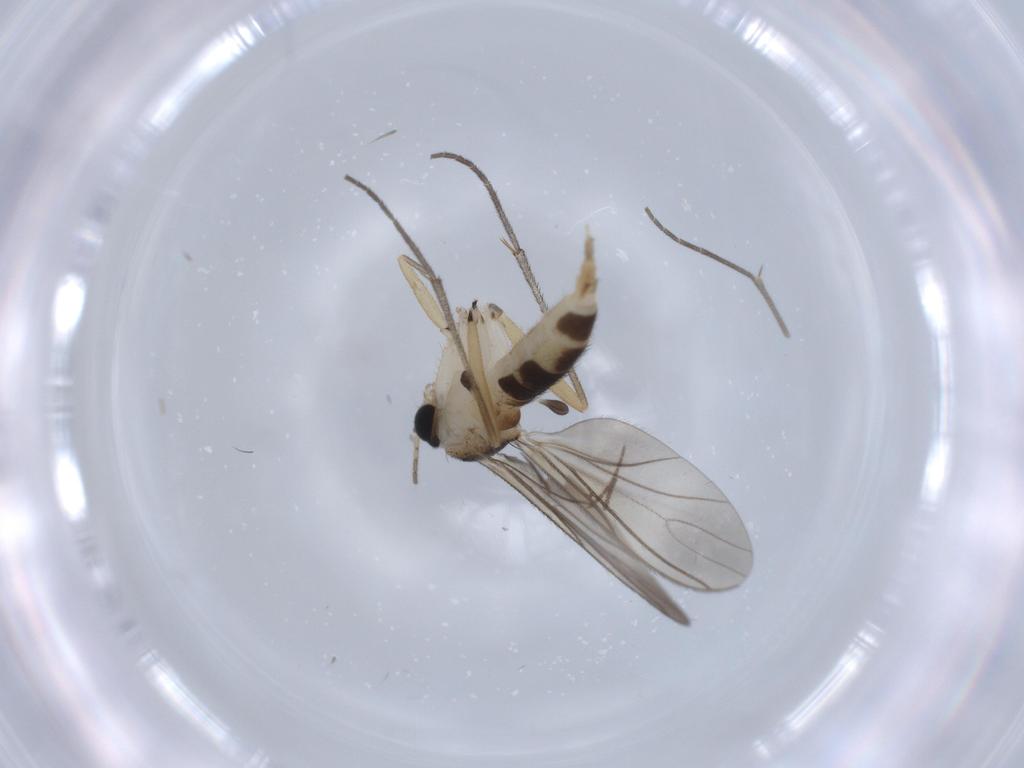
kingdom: Animalia
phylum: Arthropoda
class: Insecta
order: Diptera
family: Sciaridae
